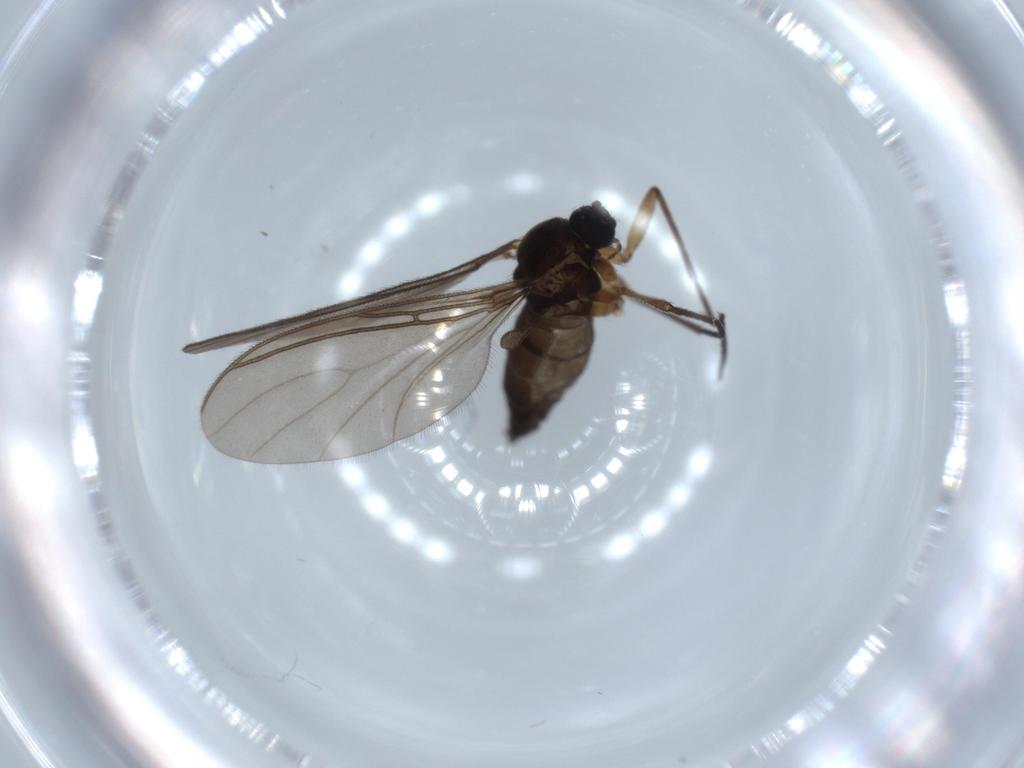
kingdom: Animalia
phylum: Arthropoda
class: Insecta
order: Diptera
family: Sciaridae
